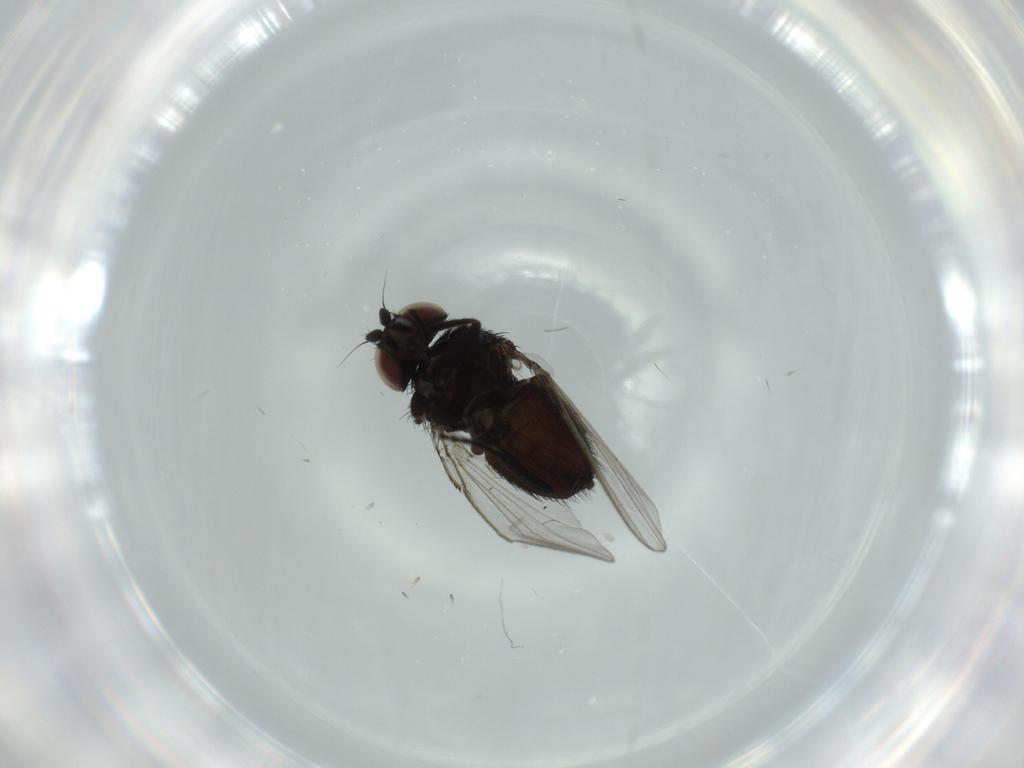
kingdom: Animalia
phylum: Arthropoda
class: Insecta
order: Diptera
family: Milichiidae
